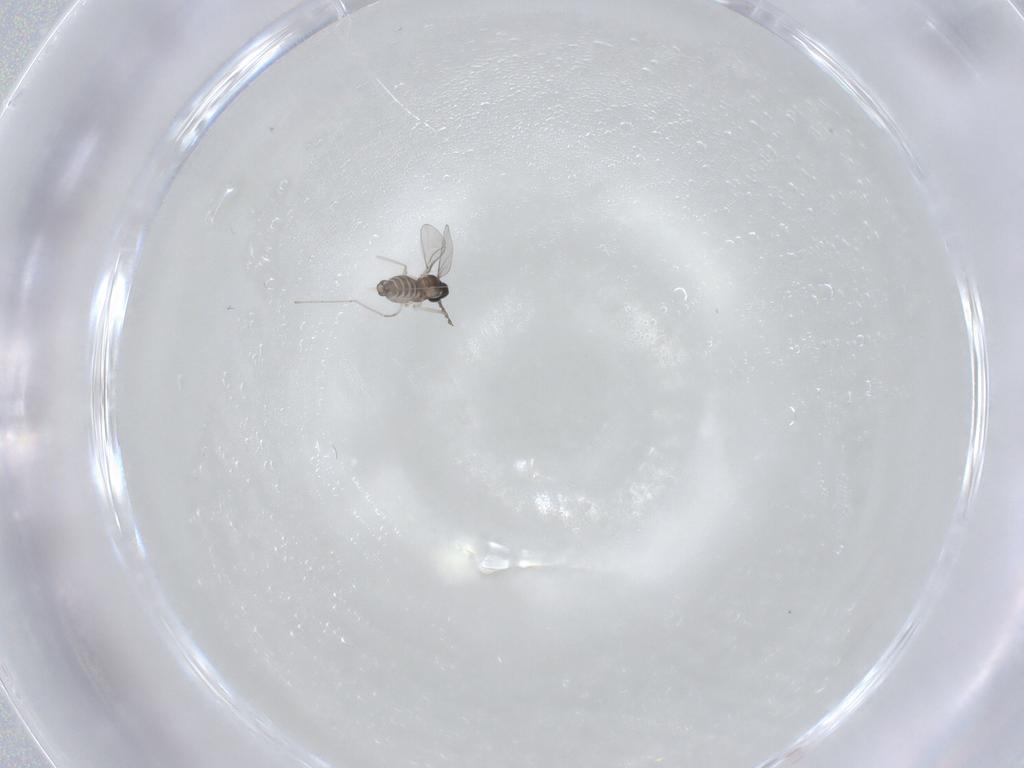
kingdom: Animalia
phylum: Arthropoda
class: Insecta
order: Diptera
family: Cecidomyiidae
